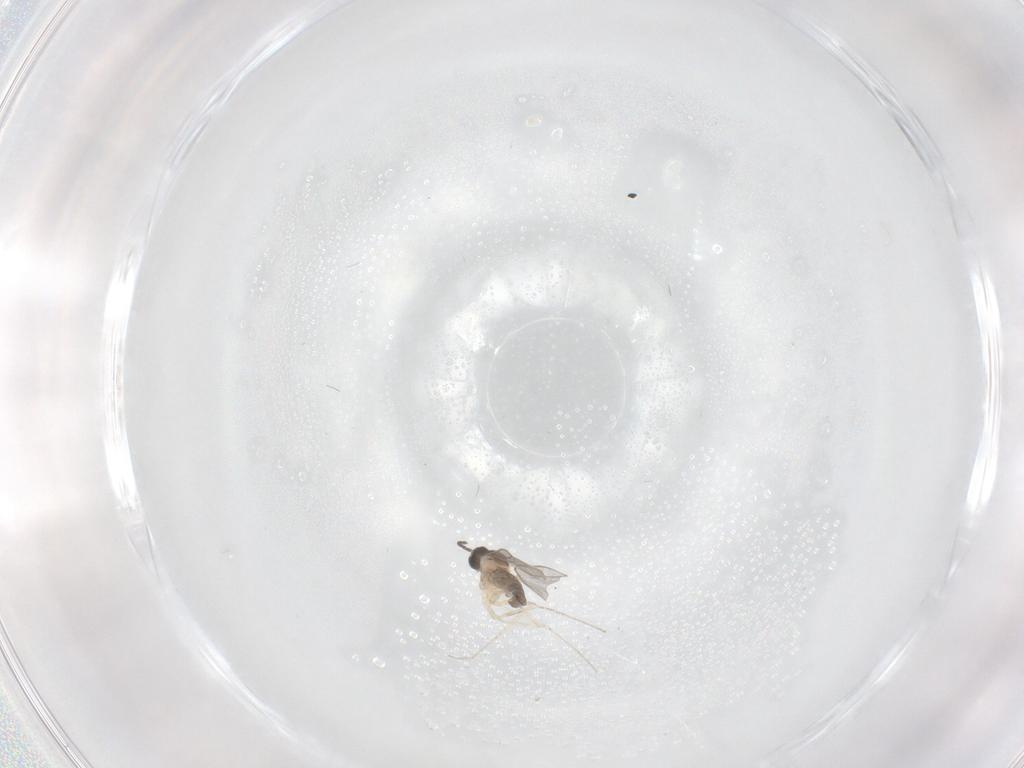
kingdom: Animalia
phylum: Arthropoda
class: Insecta
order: Diptera
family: Cecidomyiidae
